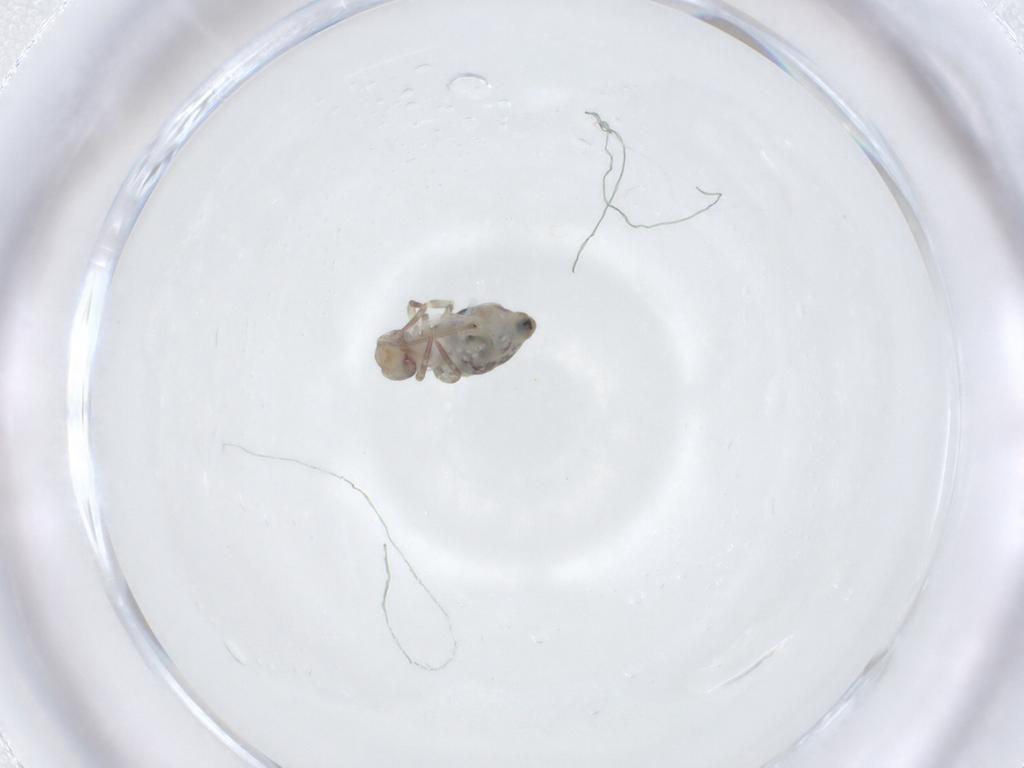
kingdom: Animalia
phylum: Arthropoda
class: Collembola
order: Symphypleona
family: Dicyrtomidae
